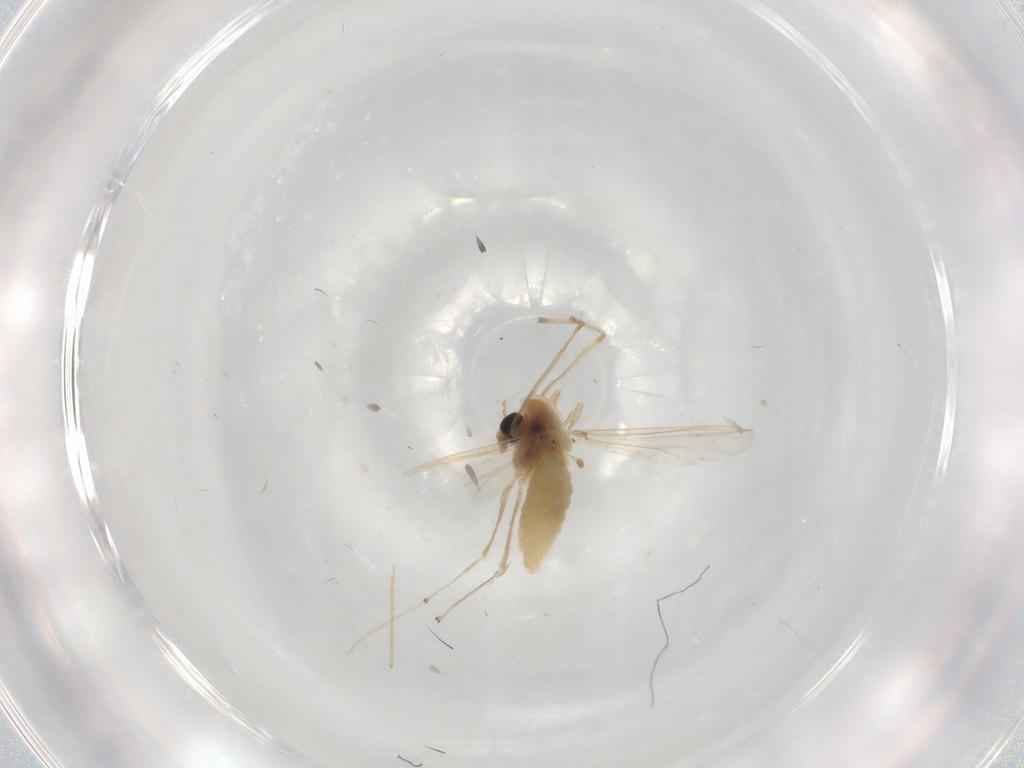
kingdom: Animalia
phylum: Arthropoda
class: Insecta
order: Diptera
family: Chironomidae
